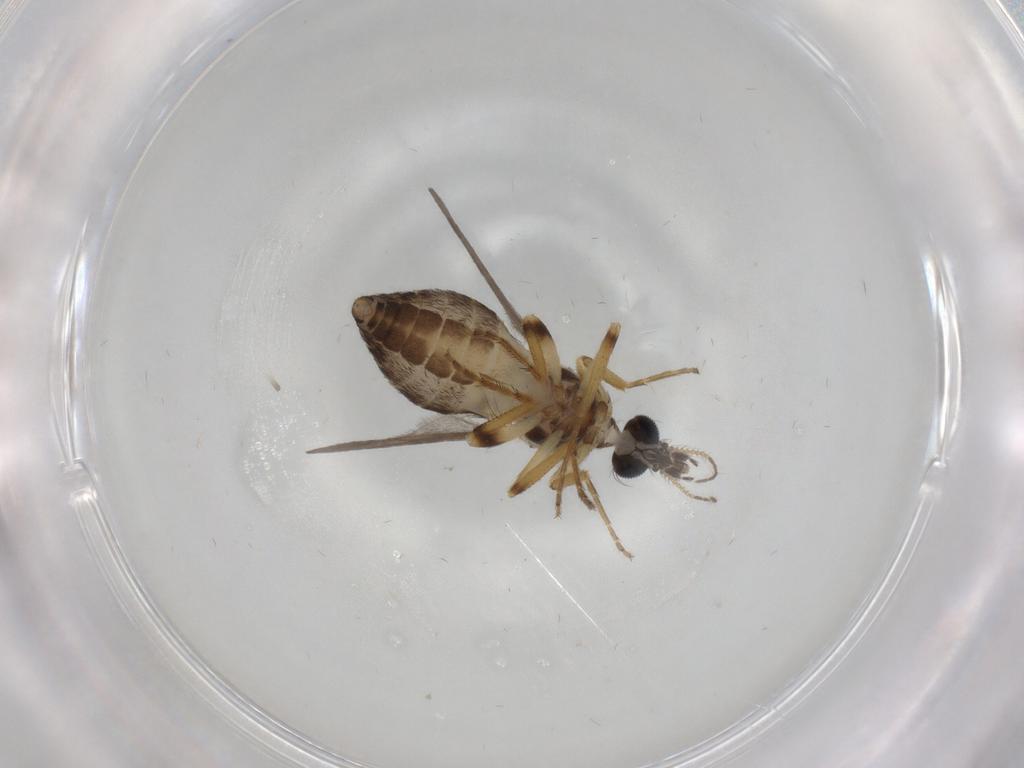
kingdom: Animalia
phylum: Arthropoda
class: Insecta
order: Diptera
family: Ceratopogonidae
